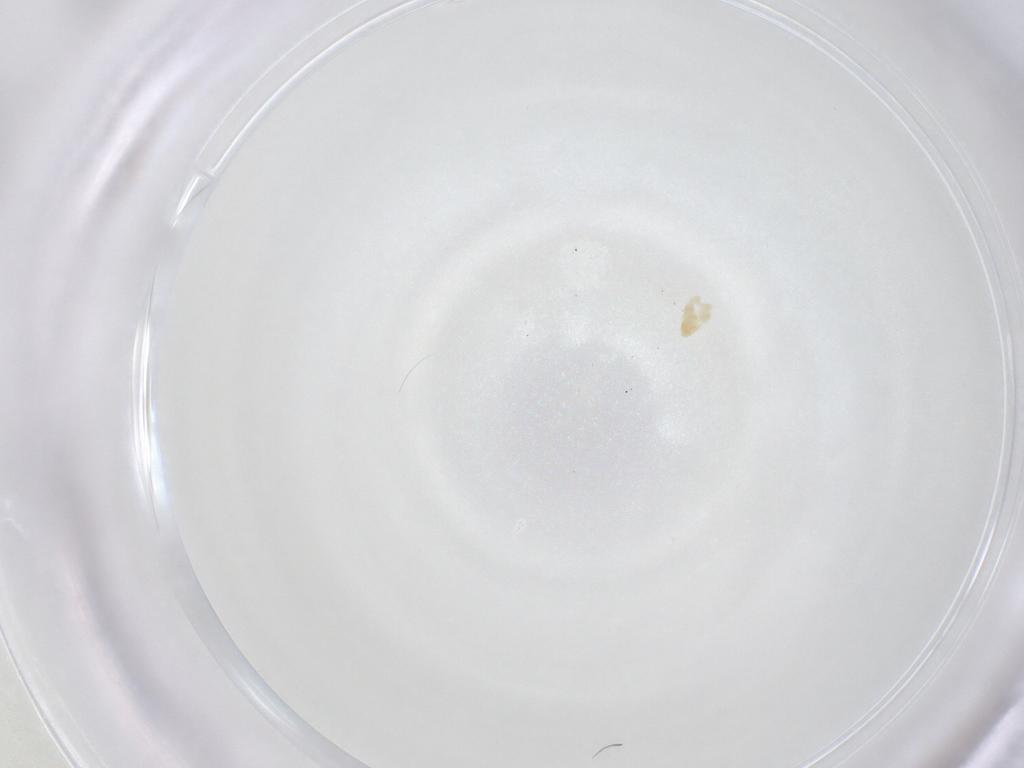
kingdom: Animalia
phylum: Arthropoda
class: Arachnida
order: Trombidiformes
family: Eupodidae
